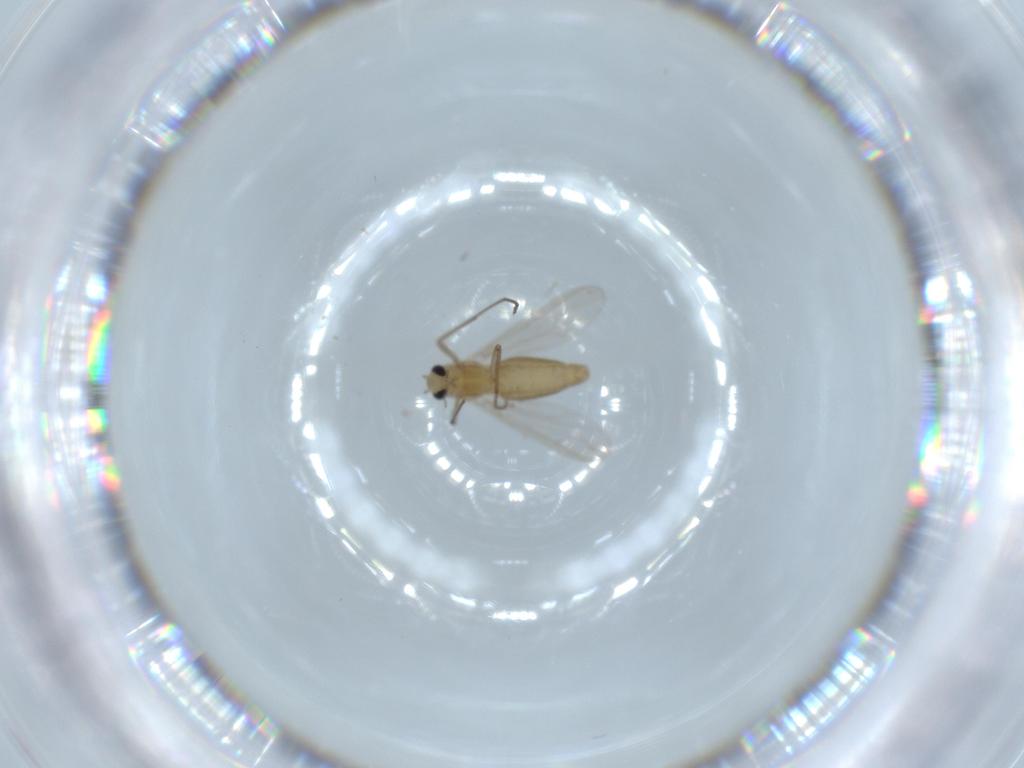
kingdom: Animalia
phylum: Arthropoda
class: Insecta
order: Diptera
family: Chironomidae
